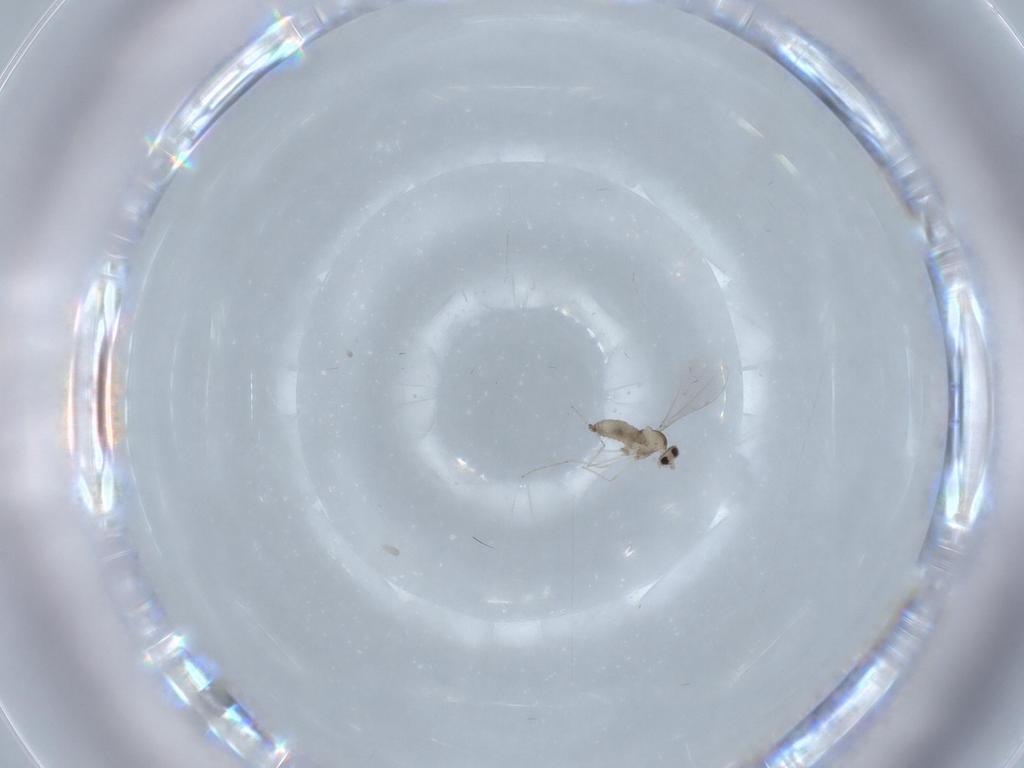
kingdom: Animalia
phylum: Arthropoda
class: Insecta
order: Diptera
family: Cecidomyiidae
